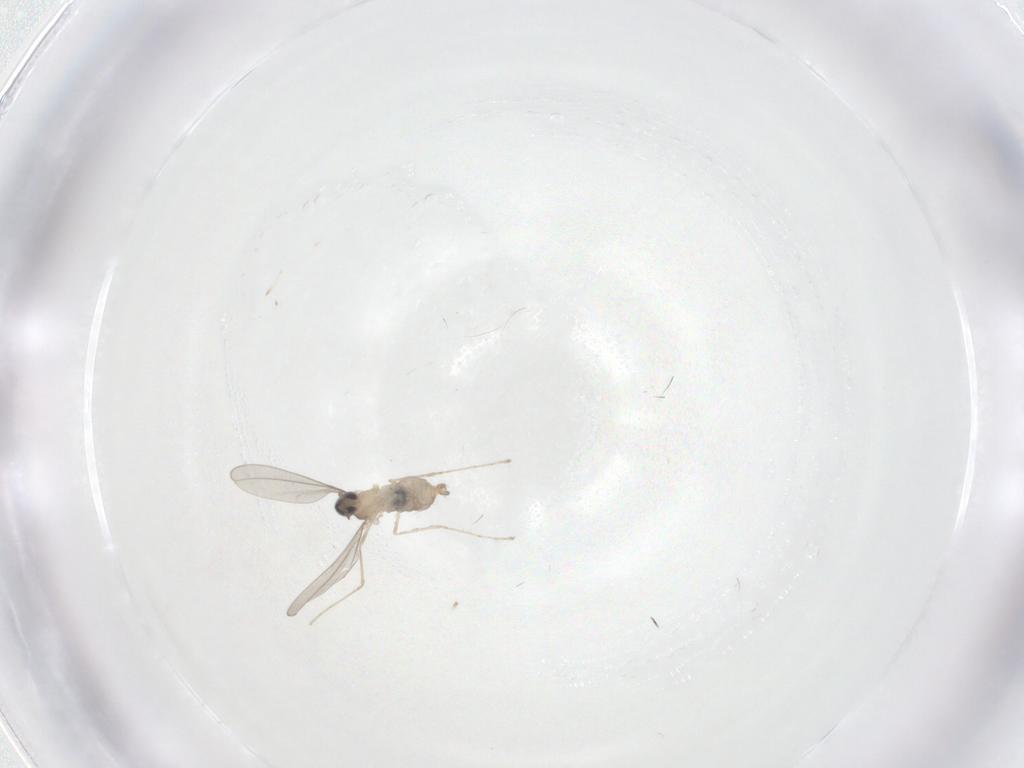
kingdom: Animalia
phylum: Arthropoda
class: Insecta
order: Diptera
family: Cecidomyiidae
